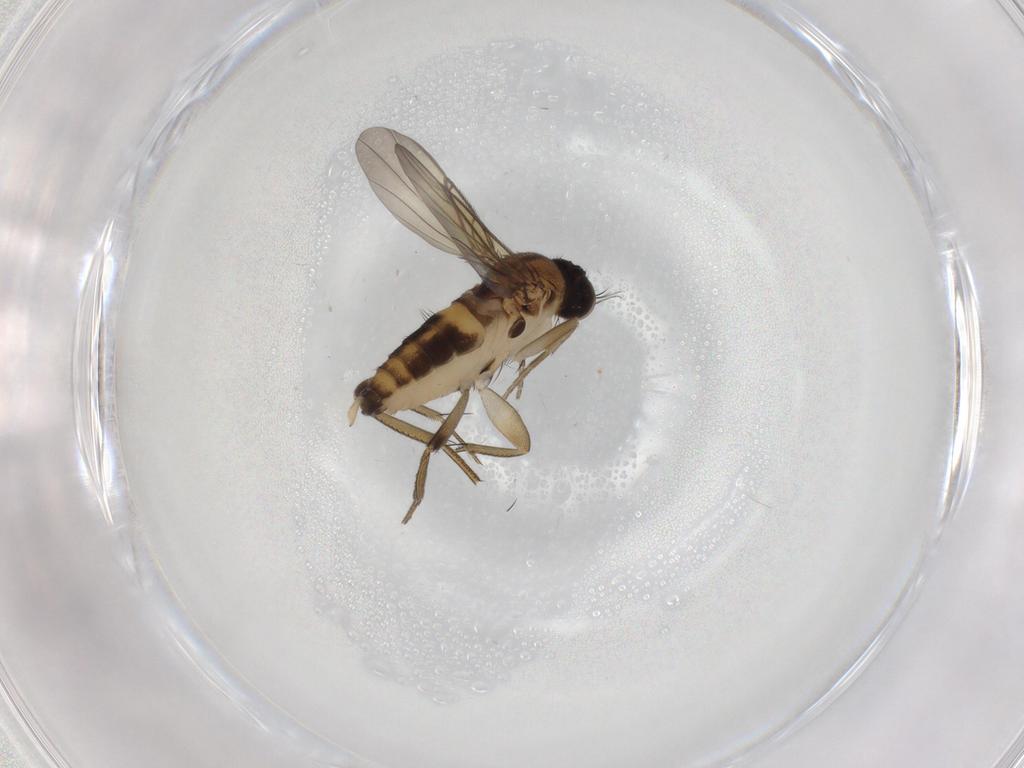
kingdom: Animalia
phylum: Arthropoda
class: Insecta
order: Diptera
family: Phoridae
